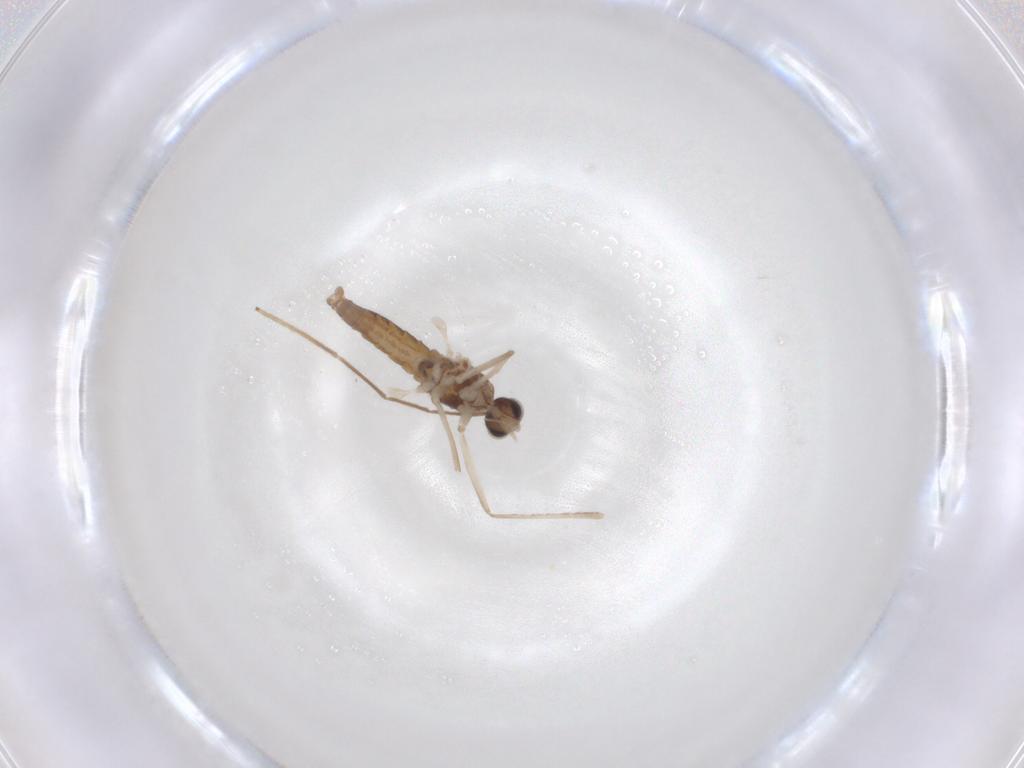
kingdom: Animalia
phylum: Arthropoda
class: Insecta
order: Diptera
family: Cecidomyiidae
